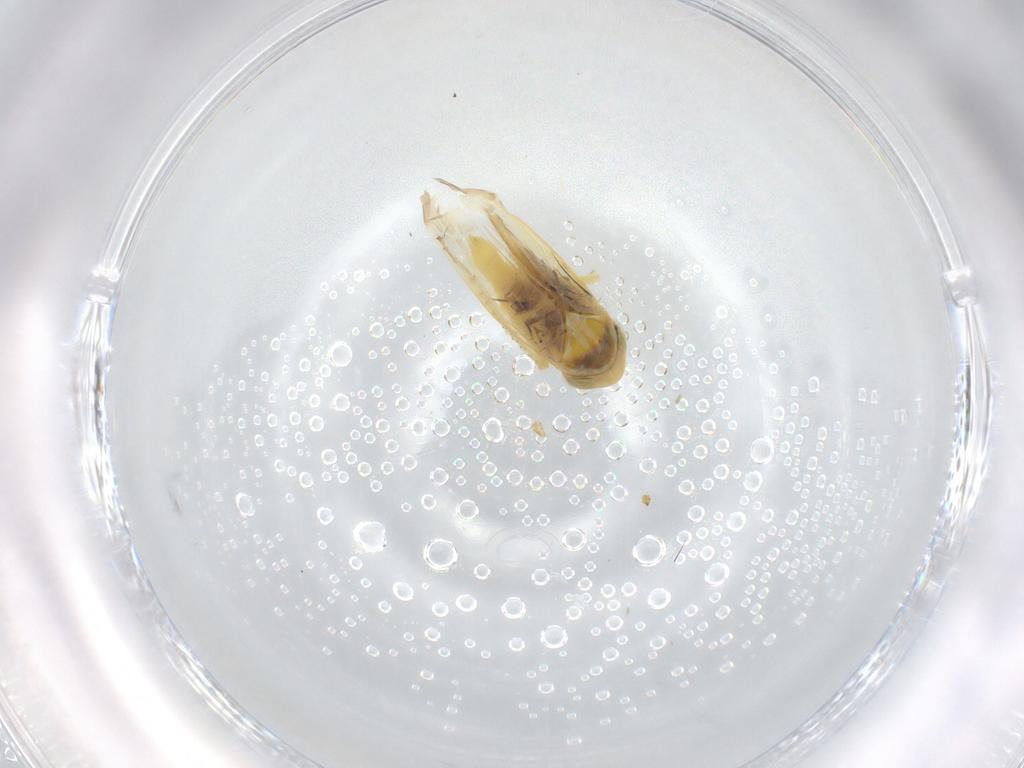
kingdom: Animalia
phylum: Arthropoda
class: Insecta
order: Hemiptera
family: Cicadellidae
